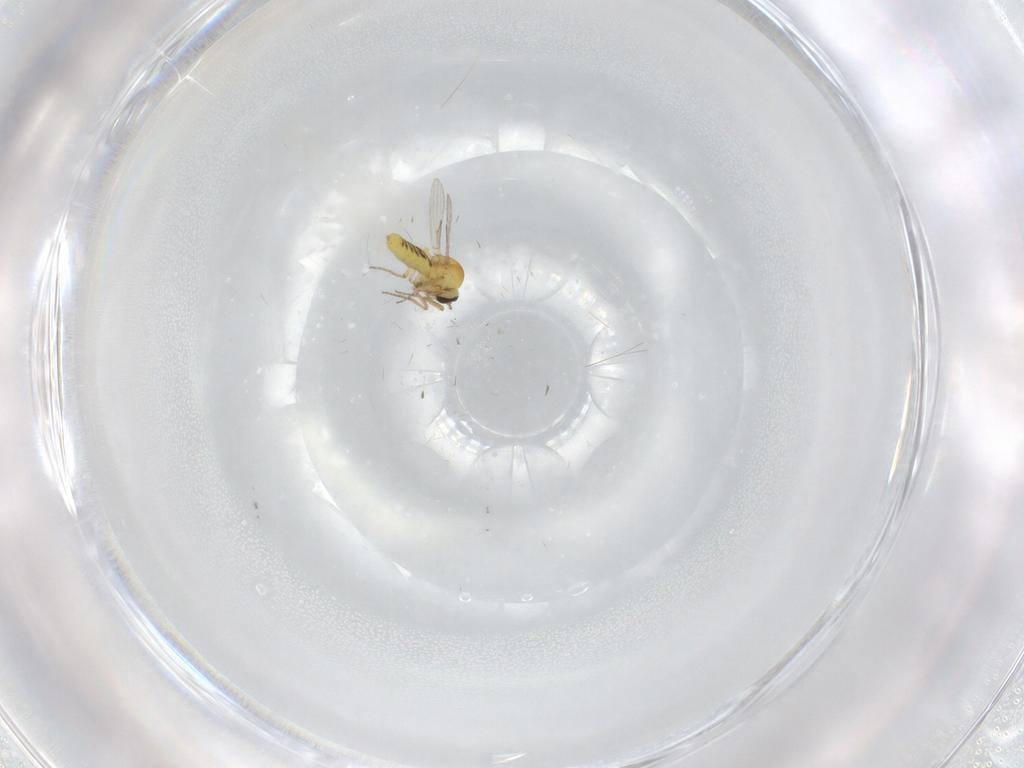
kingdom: Animalia
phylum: Arthropoda
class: Insecta
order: Diptera
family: Ceratopogonidae
